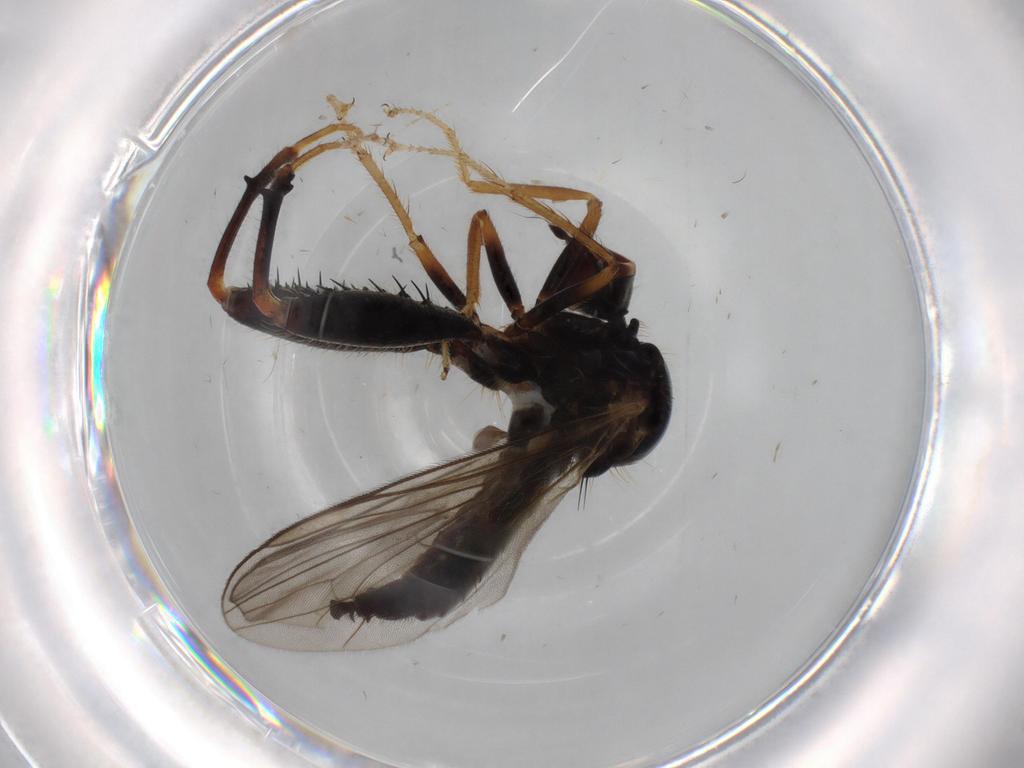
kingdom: Animalia
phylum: Arthropoda
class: Insecta
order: Diptera
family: Hybotidae
